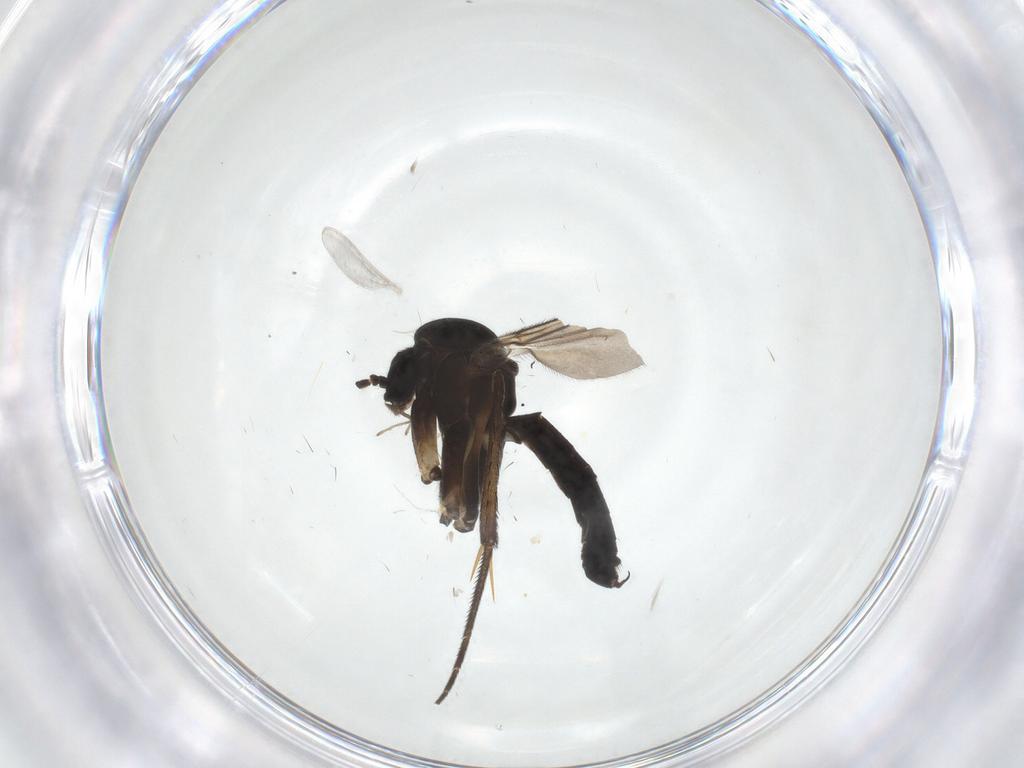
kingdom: Animalia
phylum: Arthropoda
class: Insecta
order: Diptera
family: Cecidomyiidae
